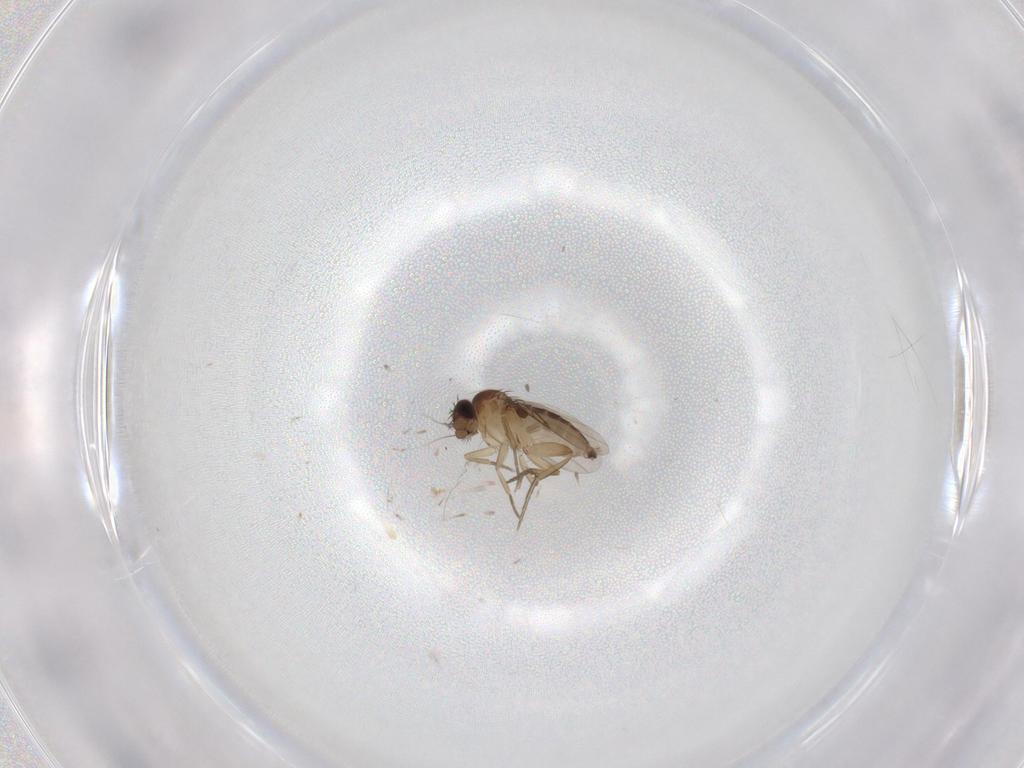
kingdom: Animalia
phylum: Arthropoda
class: Insecta
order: Diptera
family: Phoridae
